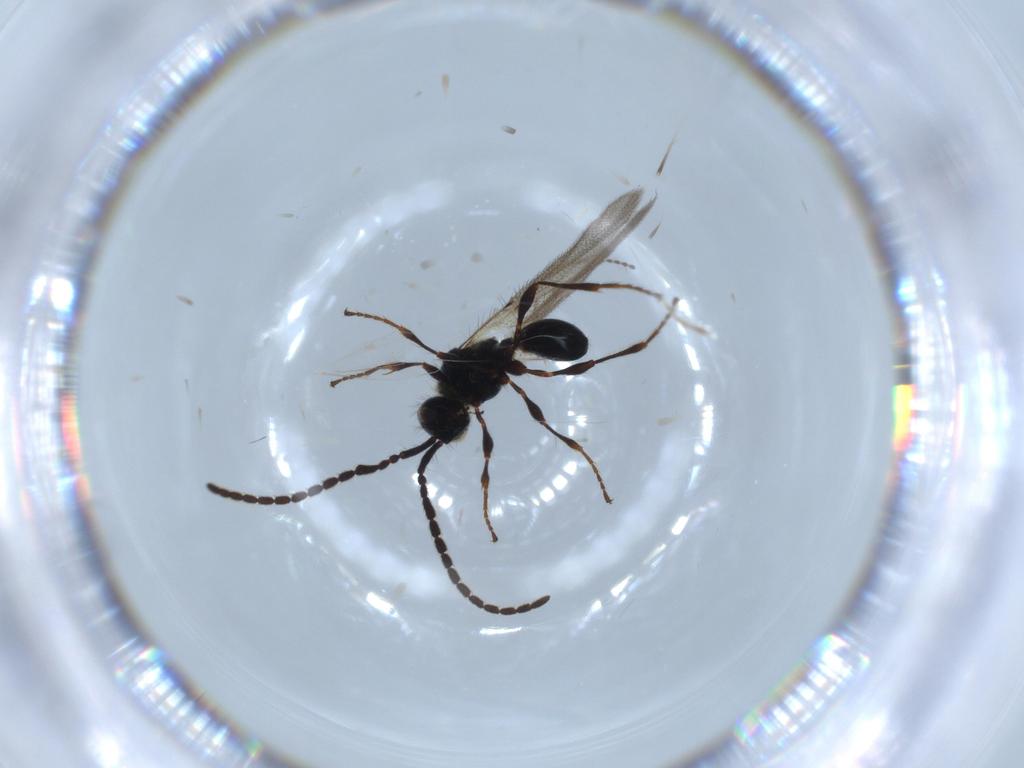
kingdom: Animalia
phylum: Arthropoda
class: Insecta
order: Hymenoptera
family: Diapriidae
